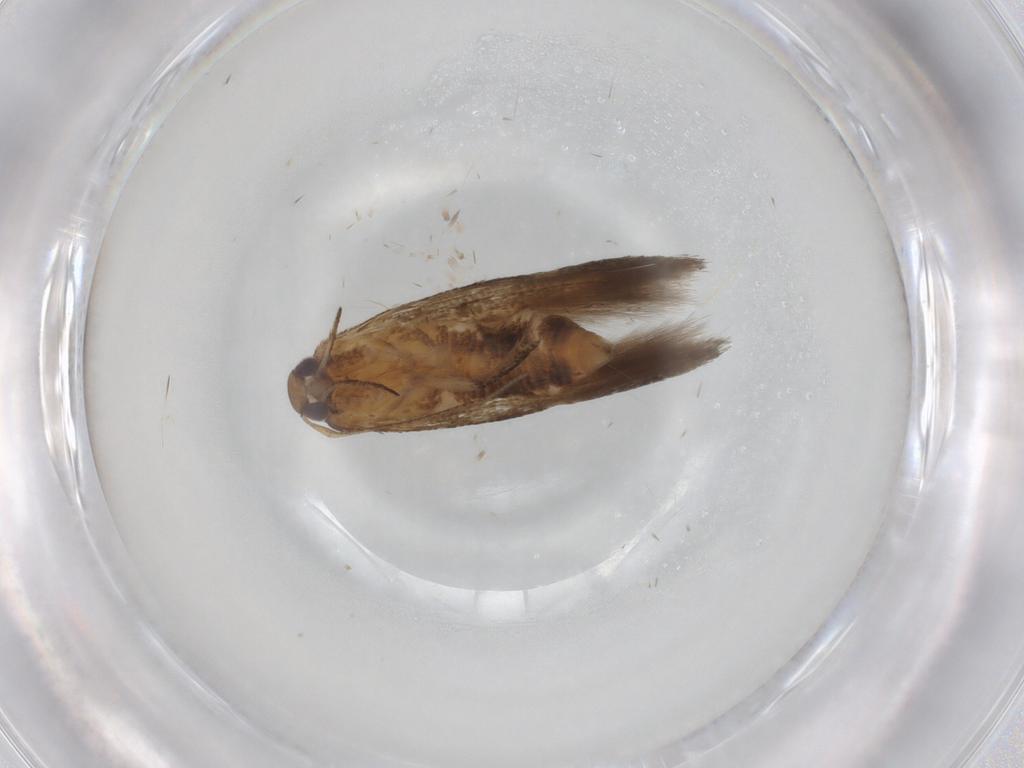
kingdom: Animalia
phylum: Arthropoda
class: Insecta
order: Lepidoptera
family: Cosmopterigidae
